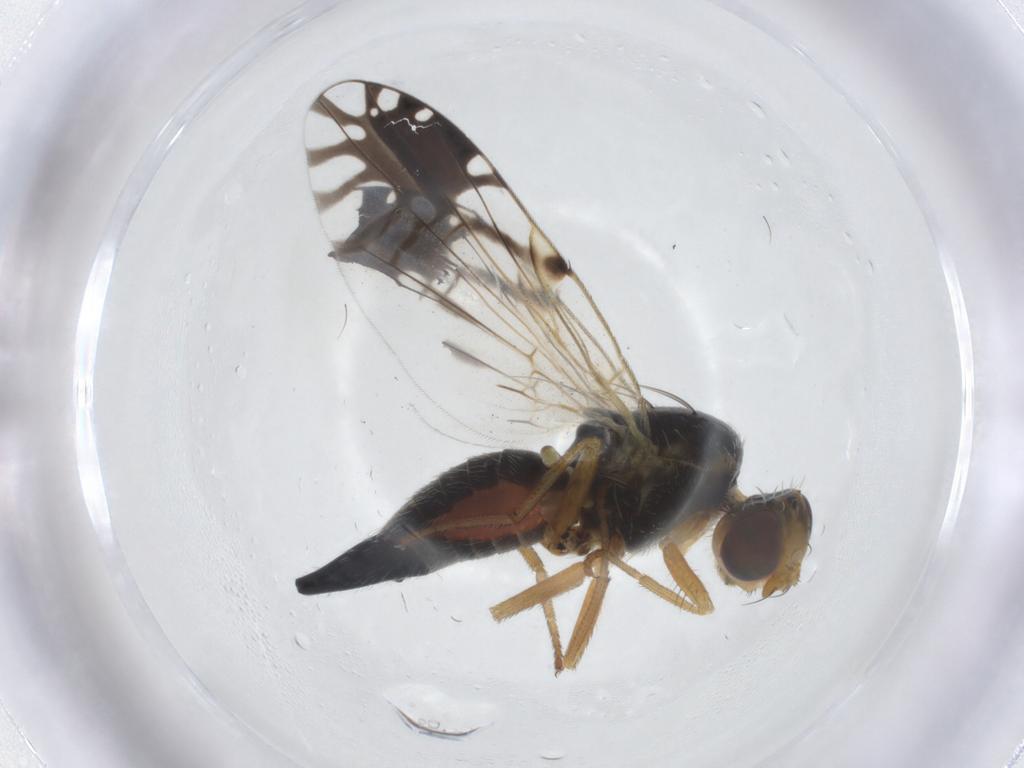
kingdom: Animalia
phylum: Arthropoda
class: Insecta
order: Diptera
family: Tephritidae
